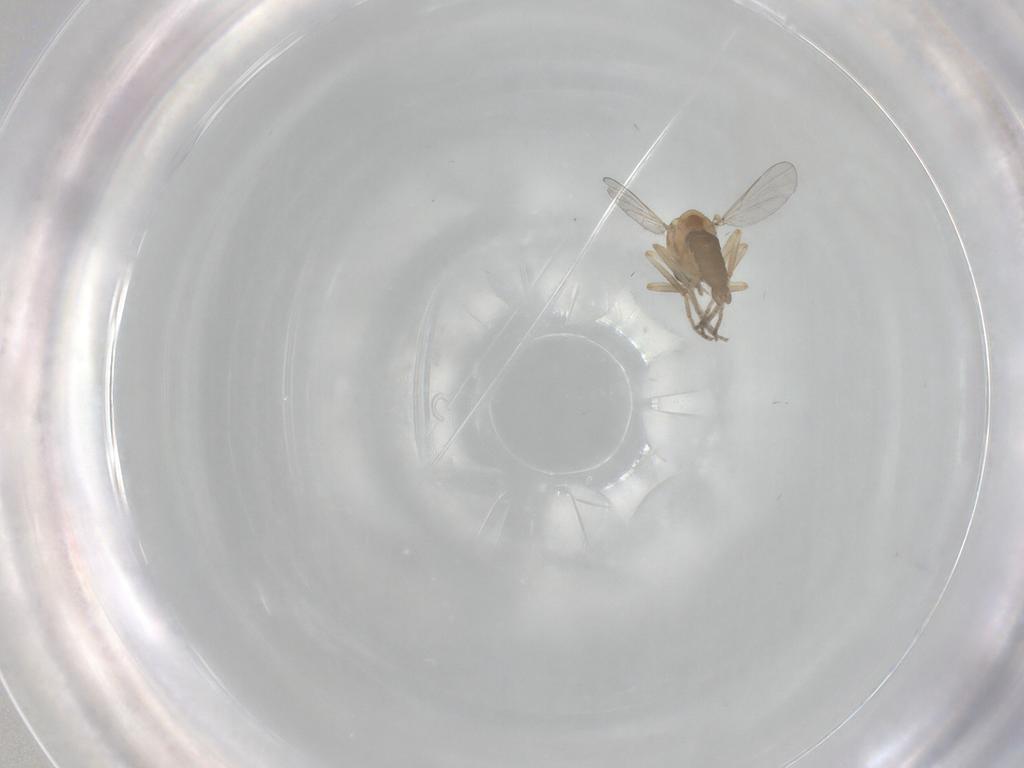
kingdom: Animalia
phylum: Arthropoda
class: Insecta
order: Diptera
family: Ceratopogonidae
